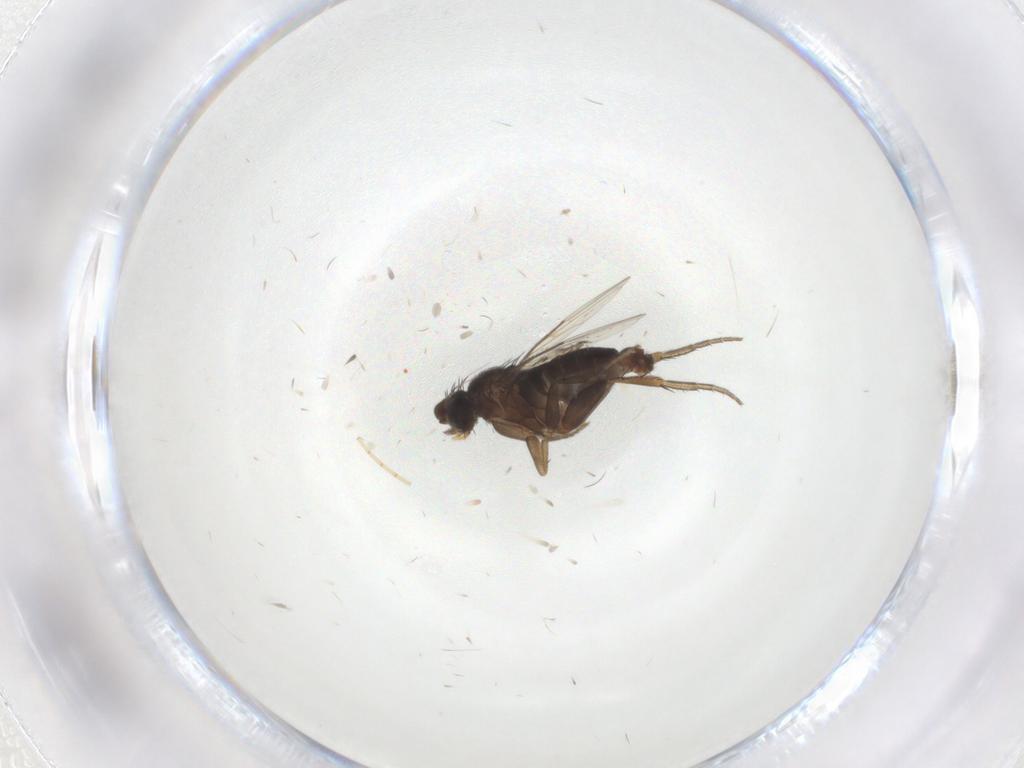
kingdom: Animalia
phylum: Arthropoda
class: Insecta
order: Diptera
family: Phoridae
